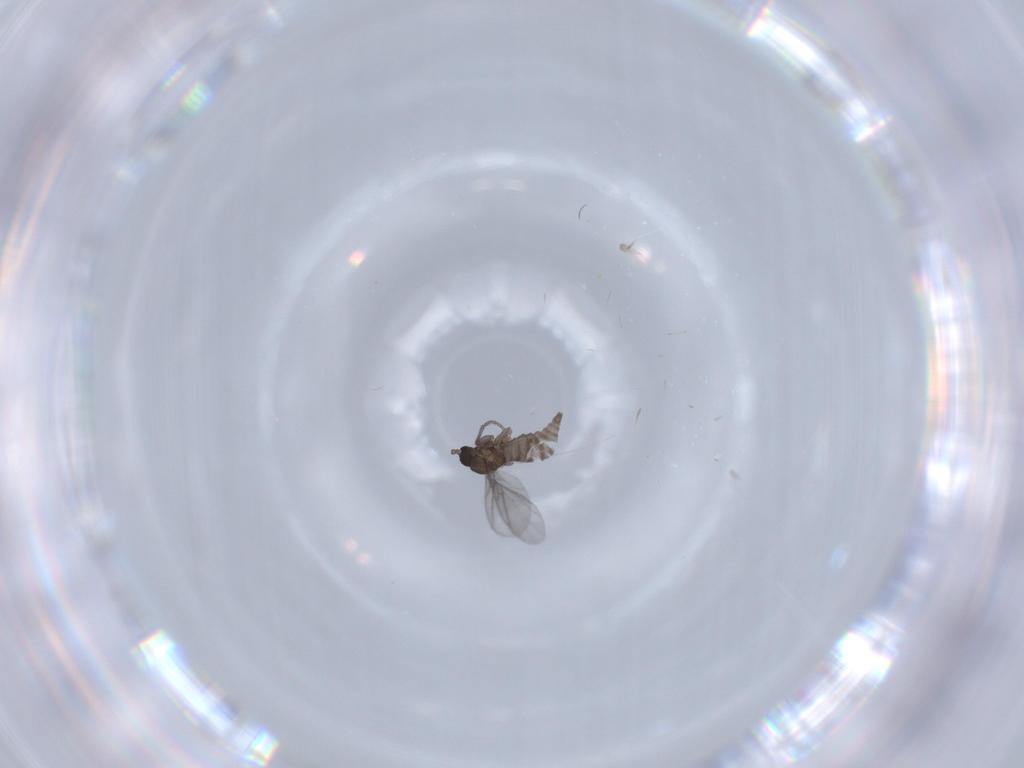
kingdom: Animalia
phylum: Arthropoda
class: Insecta
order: Diptera
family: Sciaridae
